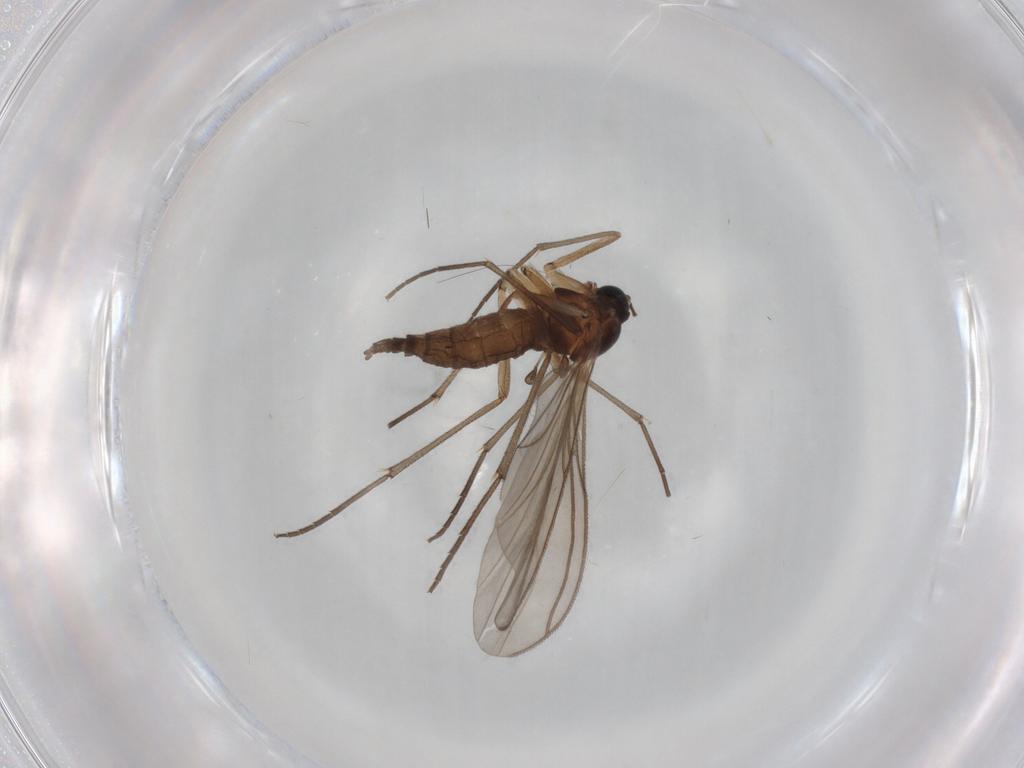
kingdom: Animalia
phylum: Arthropoda
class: Insecta
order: Diptera
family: Sciaridae
